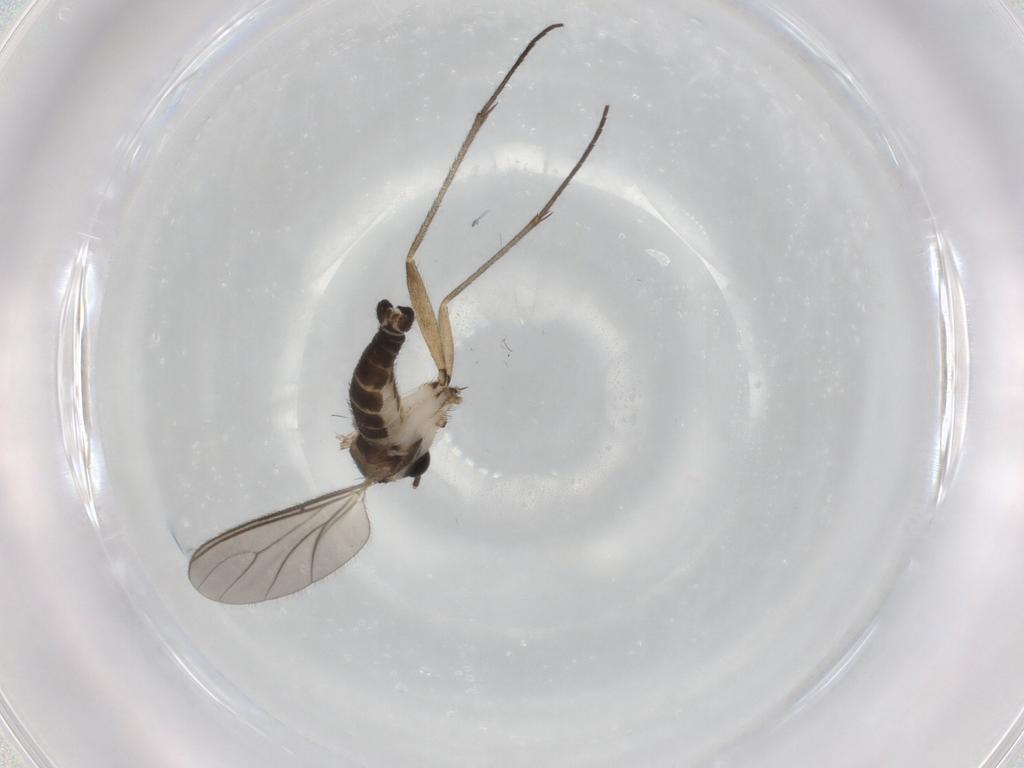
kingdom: Animalia
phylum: Arthropoda
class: Insecta
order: Diptera
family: Sciaridae
